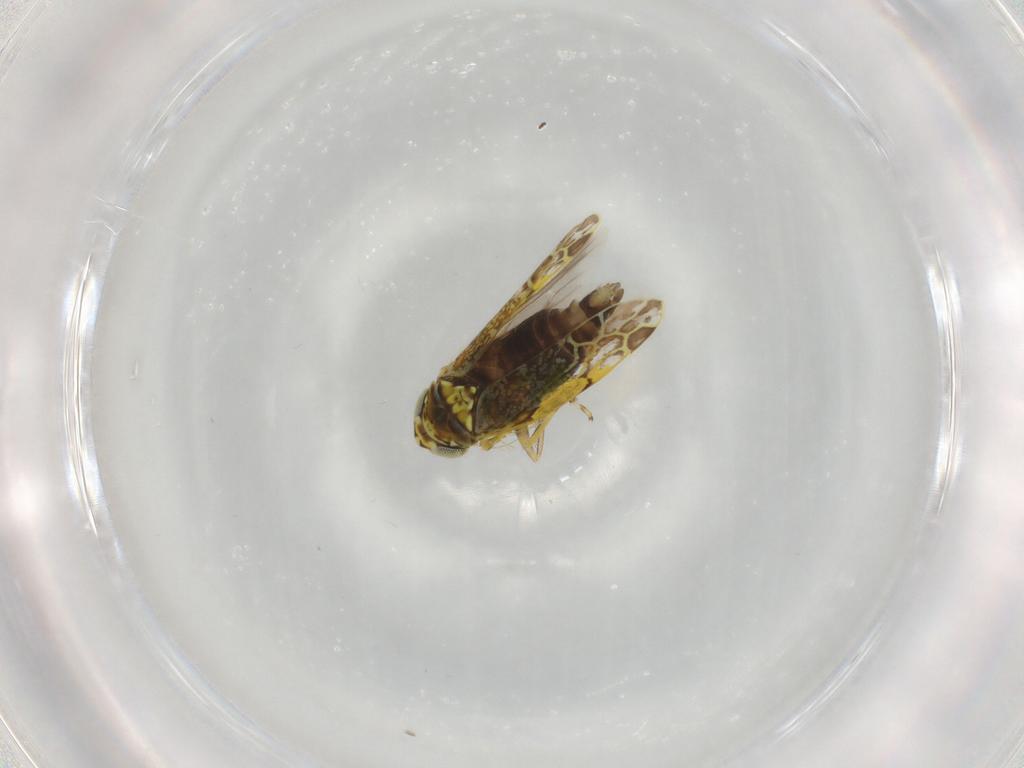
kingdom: Animalia
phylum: Arthropoda
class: Insecta
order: Hemiptera
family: Cicadellidae
